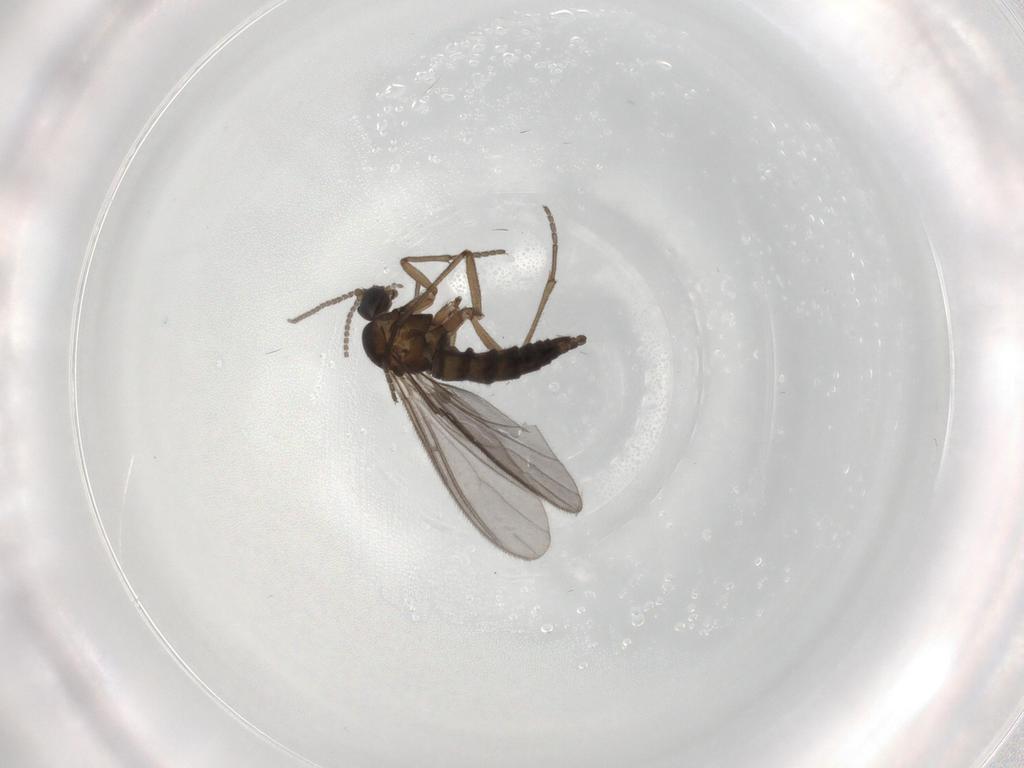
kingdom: Animalia
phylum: Arthropoda
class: Insecta
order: Diptera
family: Sciaridae
